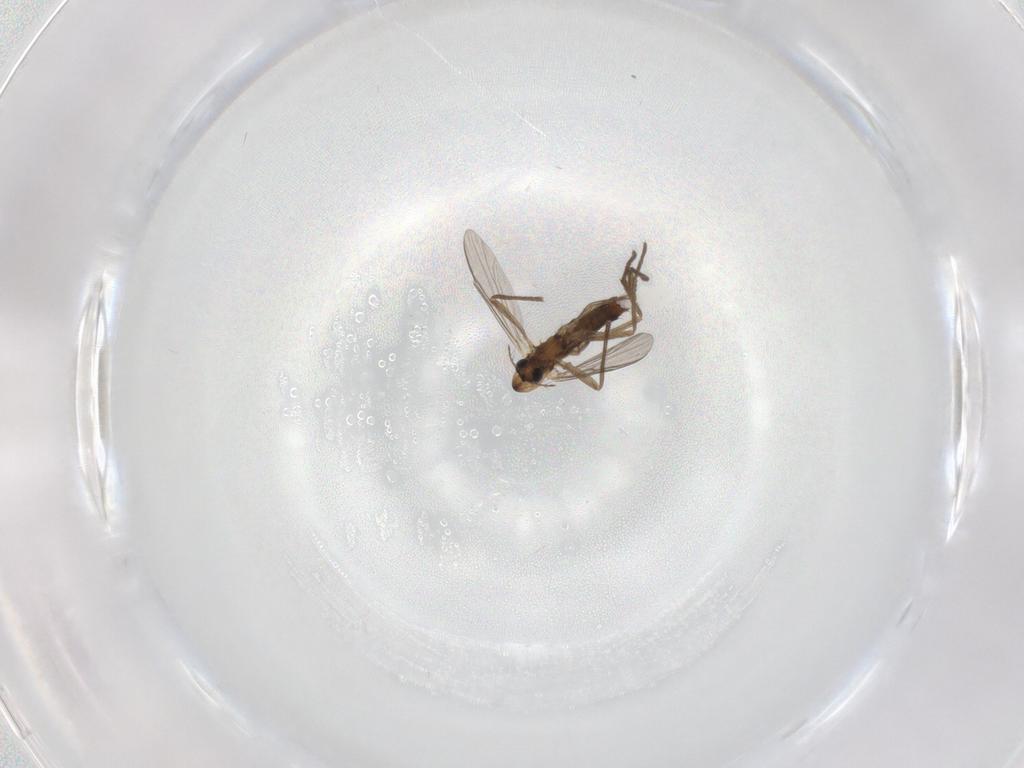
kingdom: Animalia
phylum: Arthropoda
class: Insecta
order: Diptera
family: Chironomidae
